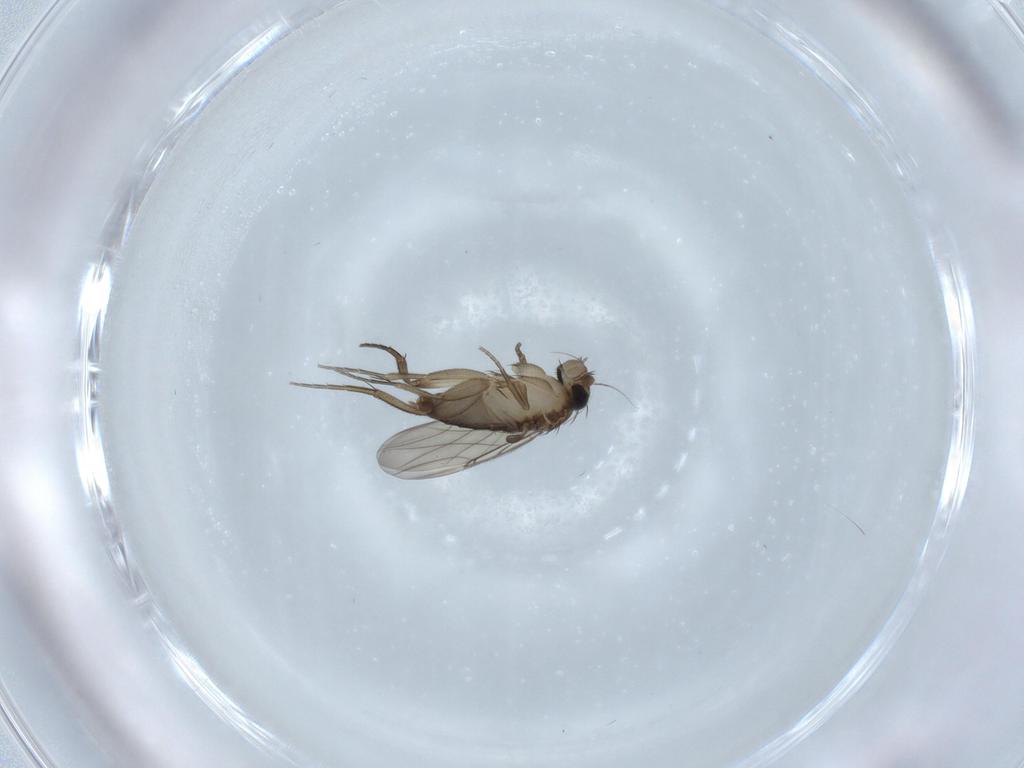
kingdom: Animalia
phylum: Arthropoda
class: Insecta
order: Diptera
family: Phoridae
